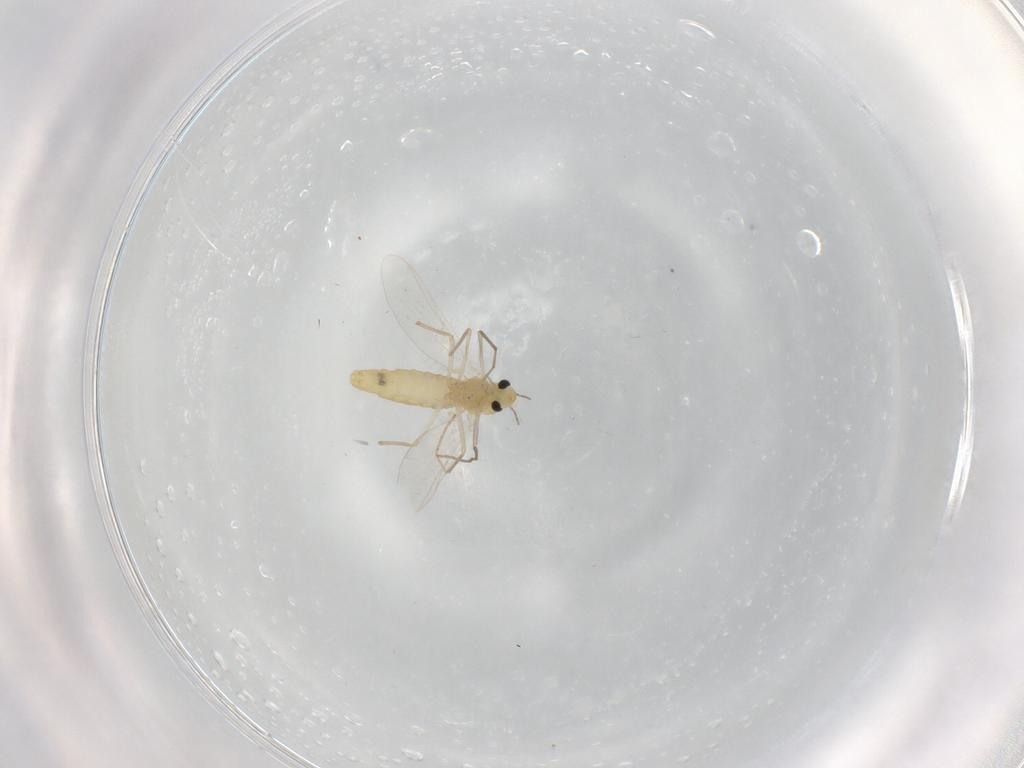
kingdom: Animalia
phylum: Arthropoda
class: Insecta
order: Diptera
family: Chironomidae
